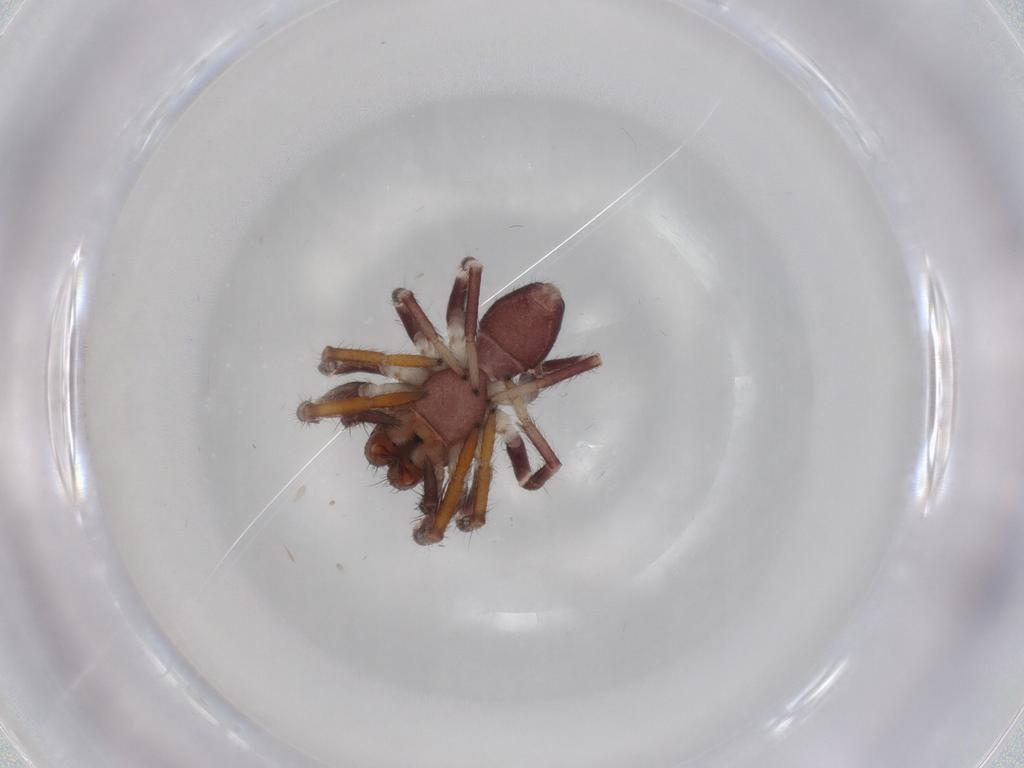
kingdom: Animalia
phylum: Arthropoda
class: Arachnida
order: Araneae
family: Corinnidae
